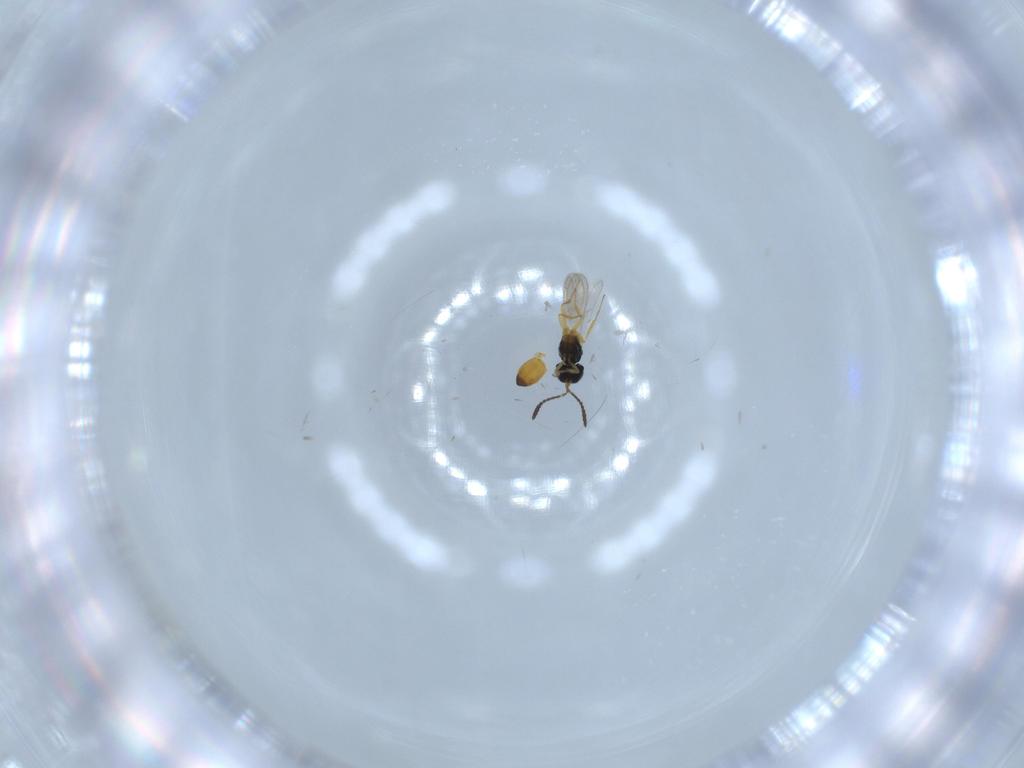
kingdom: Animalia
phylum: Arthropoda
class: Insecta
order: Hymenoptera
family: Scelionidae
